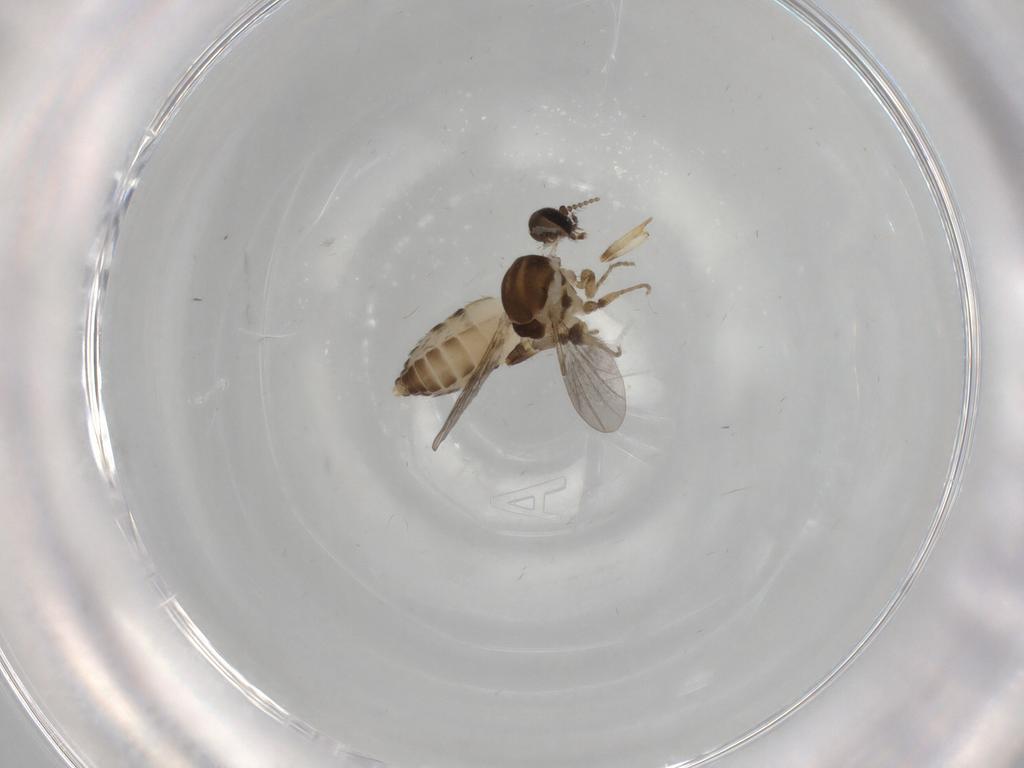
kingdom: Animalia
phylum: Arthropoda
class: Insecta
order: Diptera
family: Ceratopogonidae
